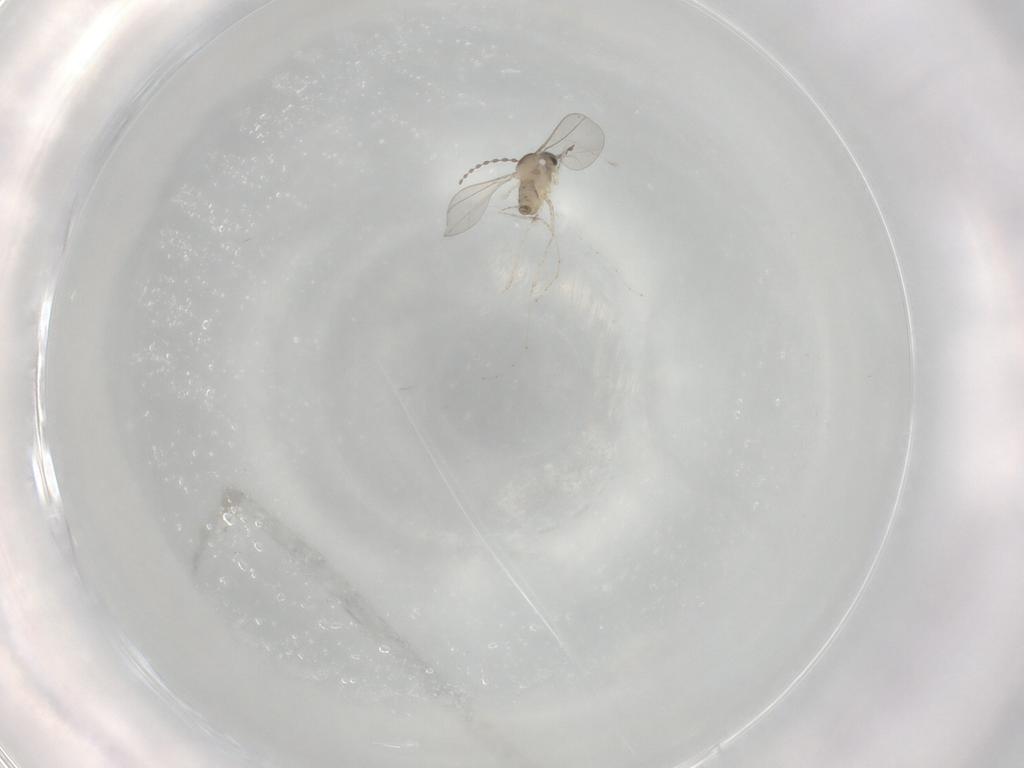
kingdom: Animalia
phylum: Arthropoda
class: Insecta
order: Diptera
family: Cecidomyiidae
